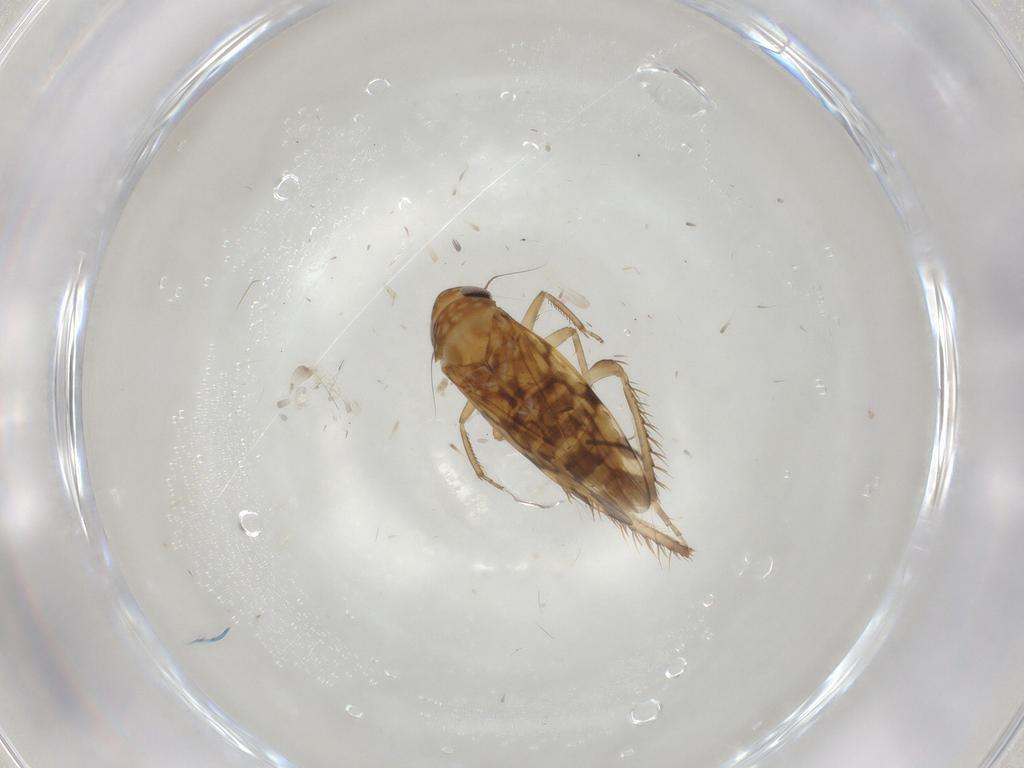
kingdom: Animalia
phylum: Arthropoda
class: Insecta
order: Hemiptera
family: Cicadellidae
